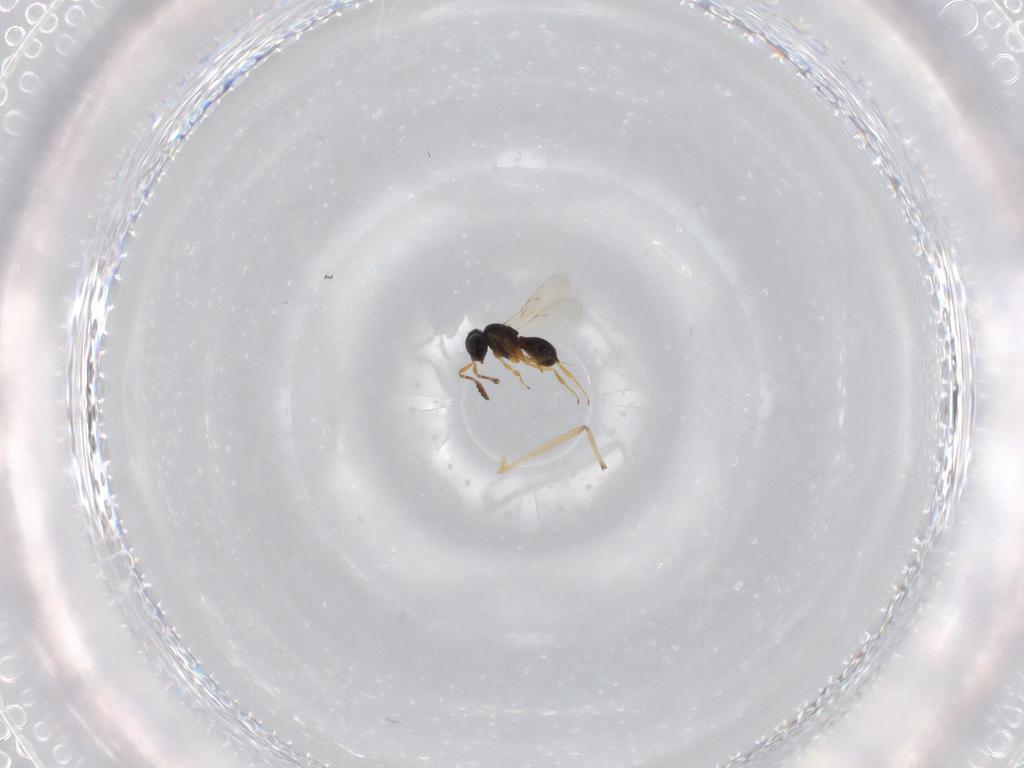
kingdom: Animalia
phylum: Arthropoda
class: Insecta
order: Hymenoptera
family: Scelionidae
